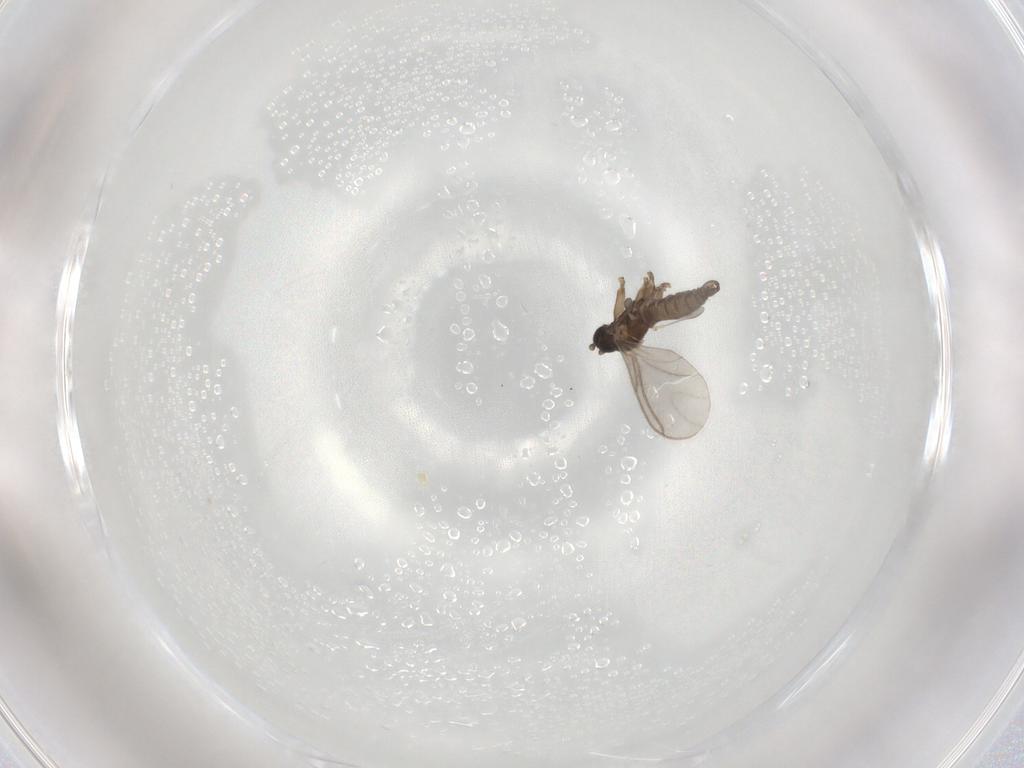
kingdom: Animalia
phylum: Arthropoda
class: Insecta
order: Diptera
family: Sciaridae
